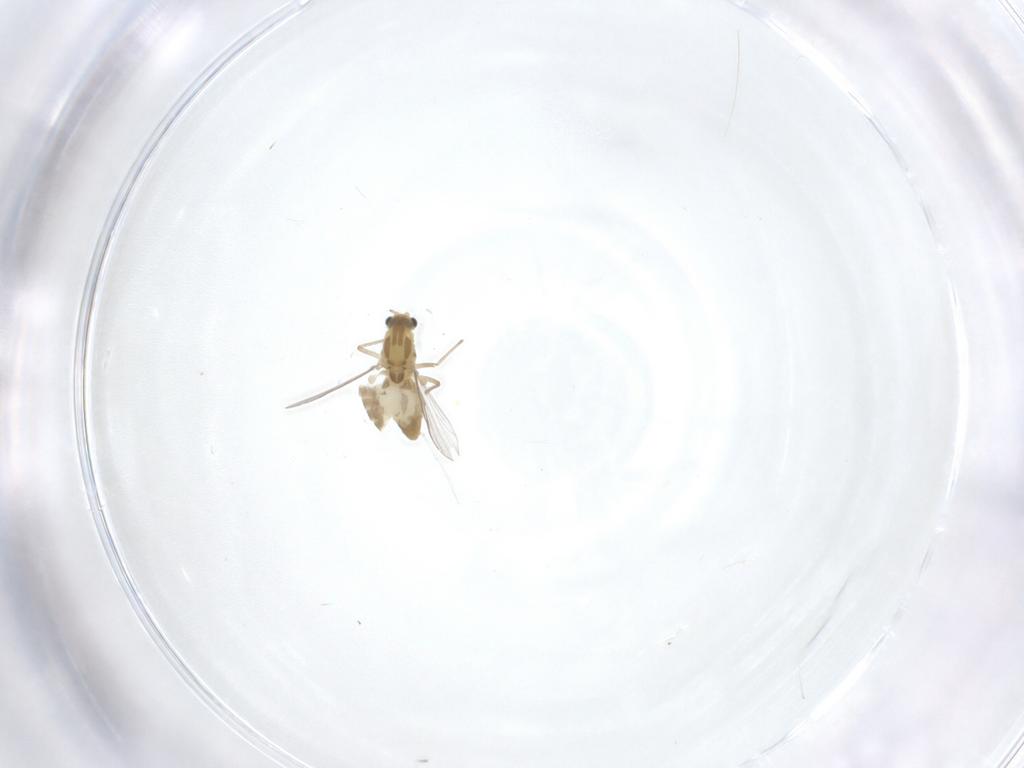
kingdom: Animalia
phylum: Arthropoda
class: Insecta
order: Diptera
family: Chironomidae
